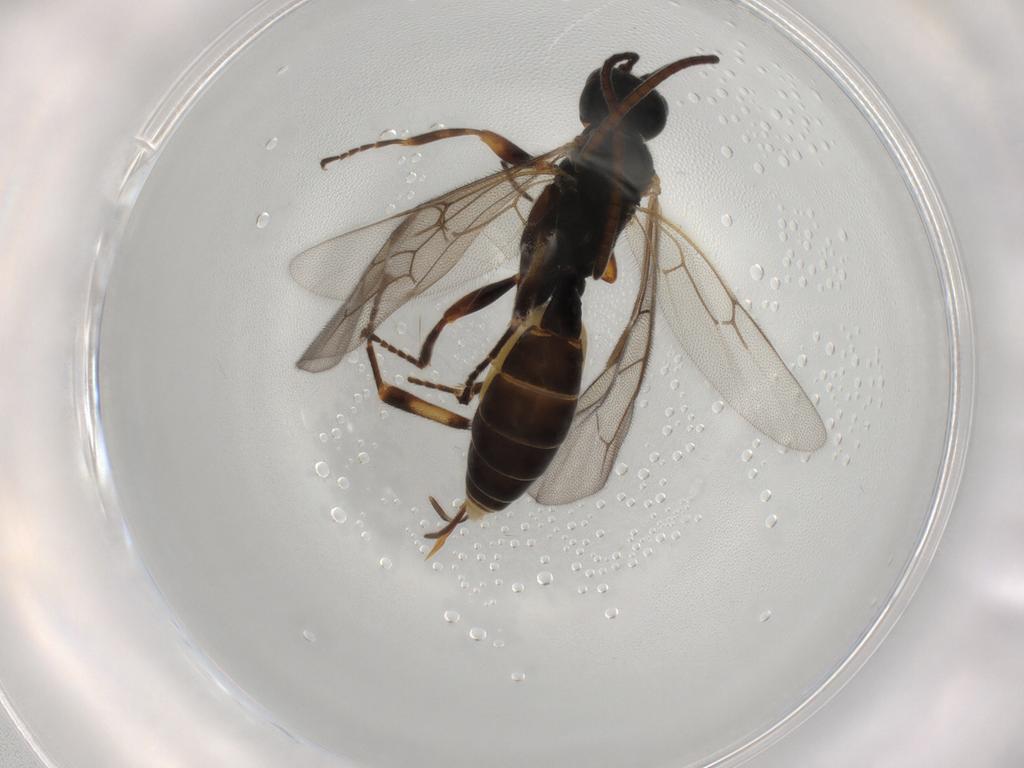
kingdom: Animalia
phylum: Arthropoda
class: Insecta
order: Hymenoptera
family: Ichneumonidae
